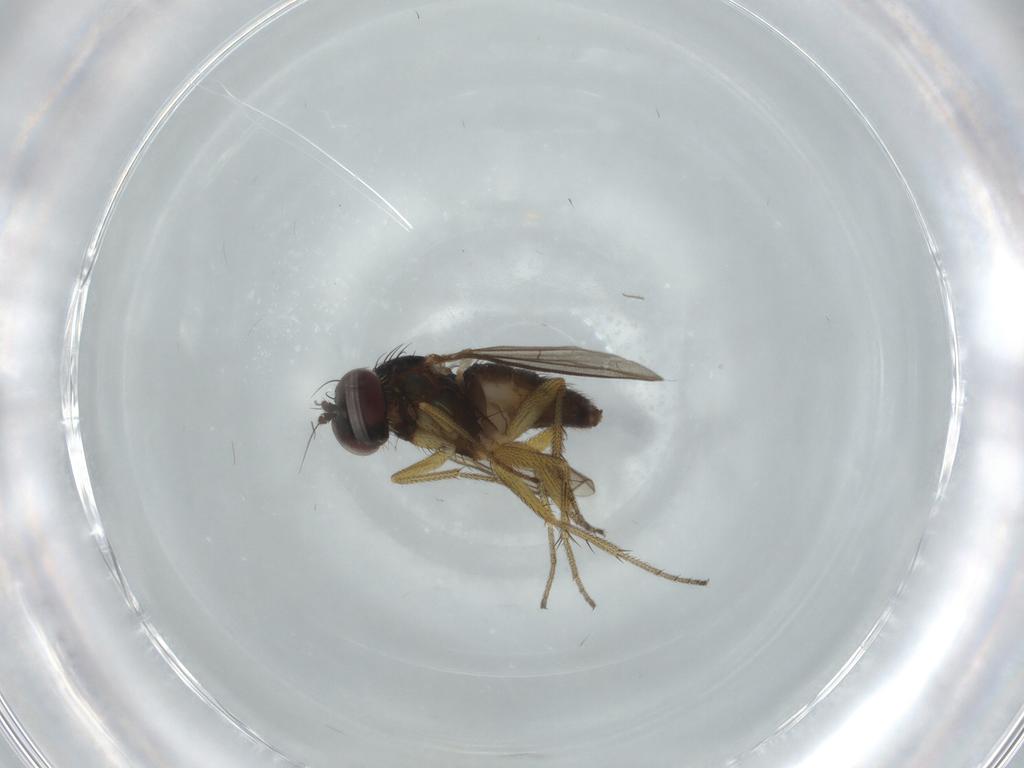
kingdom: Animalia
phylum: Arthropoda
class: Insecta
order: Diptera
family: Dolichopodidae
